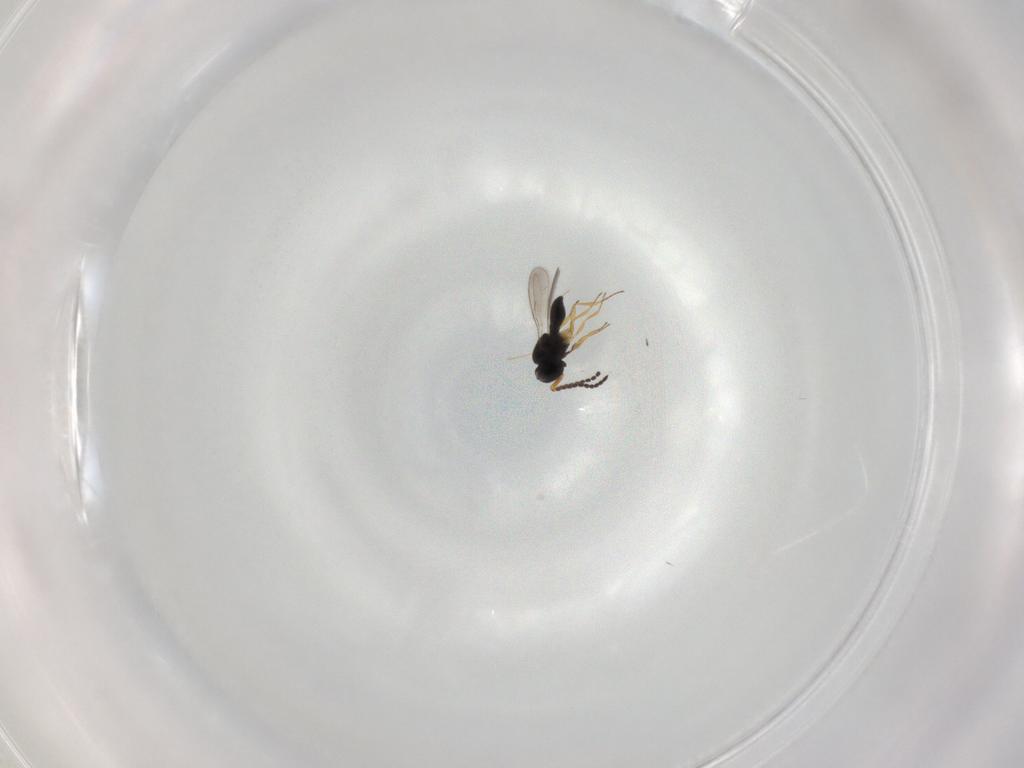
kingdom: Animalia
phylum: Arthropoda
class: Insecta
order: Hymenoptera
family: Scelionidae
